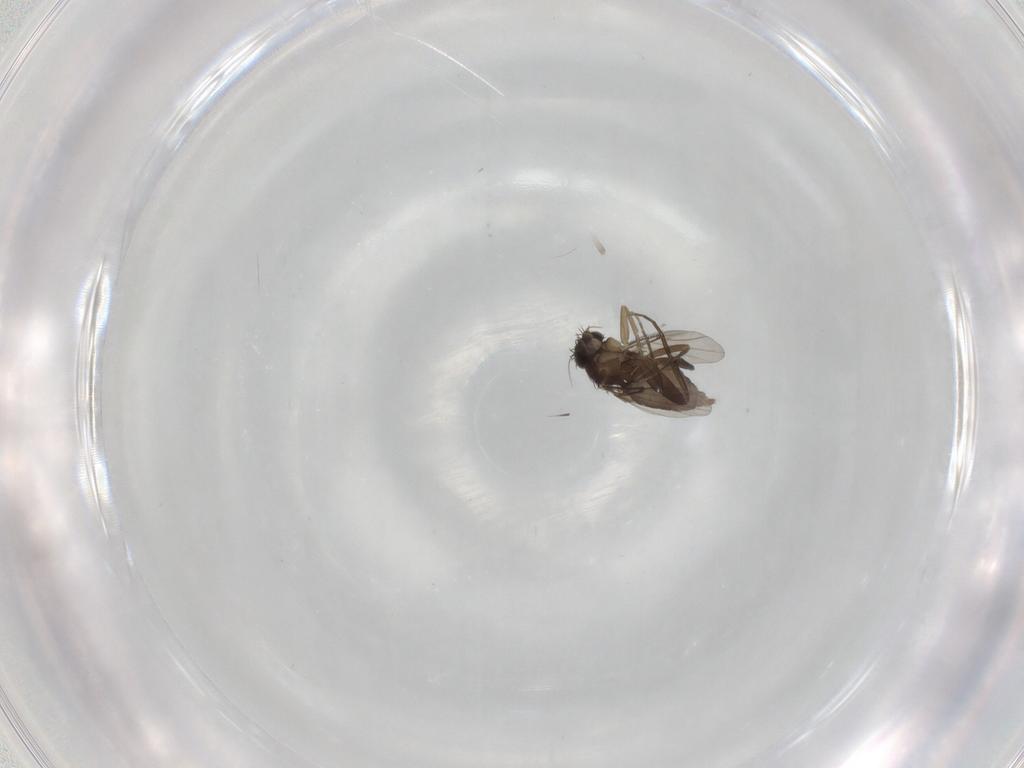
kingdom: Animalia
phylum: Arthropoda
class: Insecta
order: Diptera
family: Phoridae
